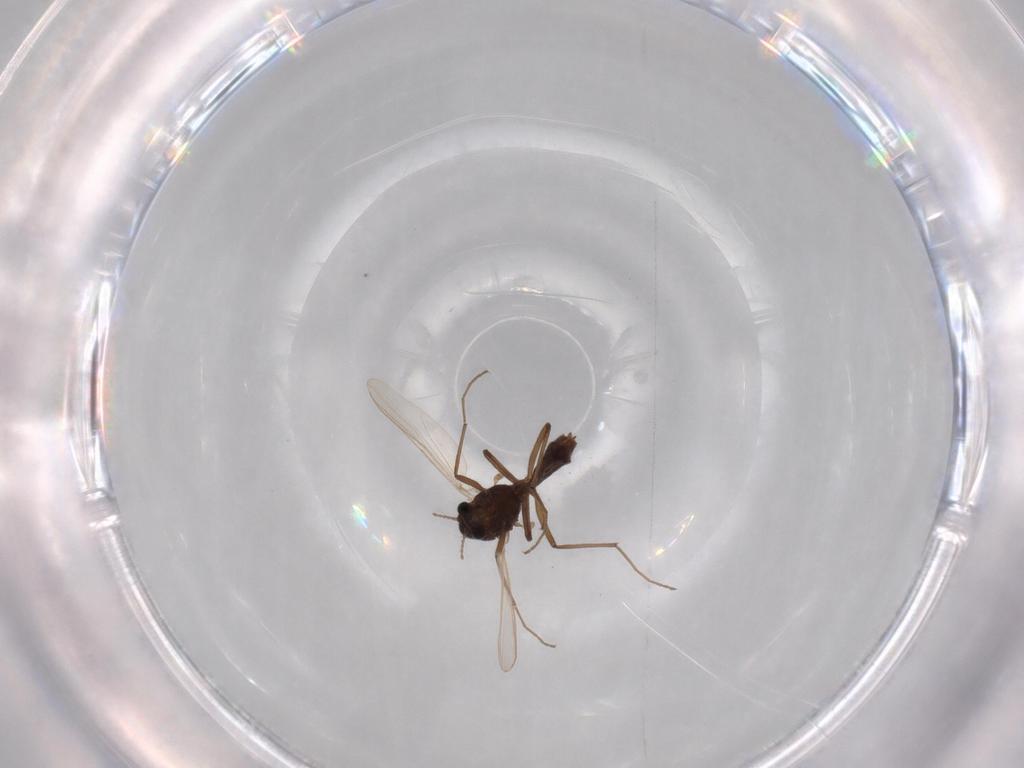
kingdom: Animalia
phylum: Arthropoda
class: Insecta
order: Diptera
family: Chironomidae
